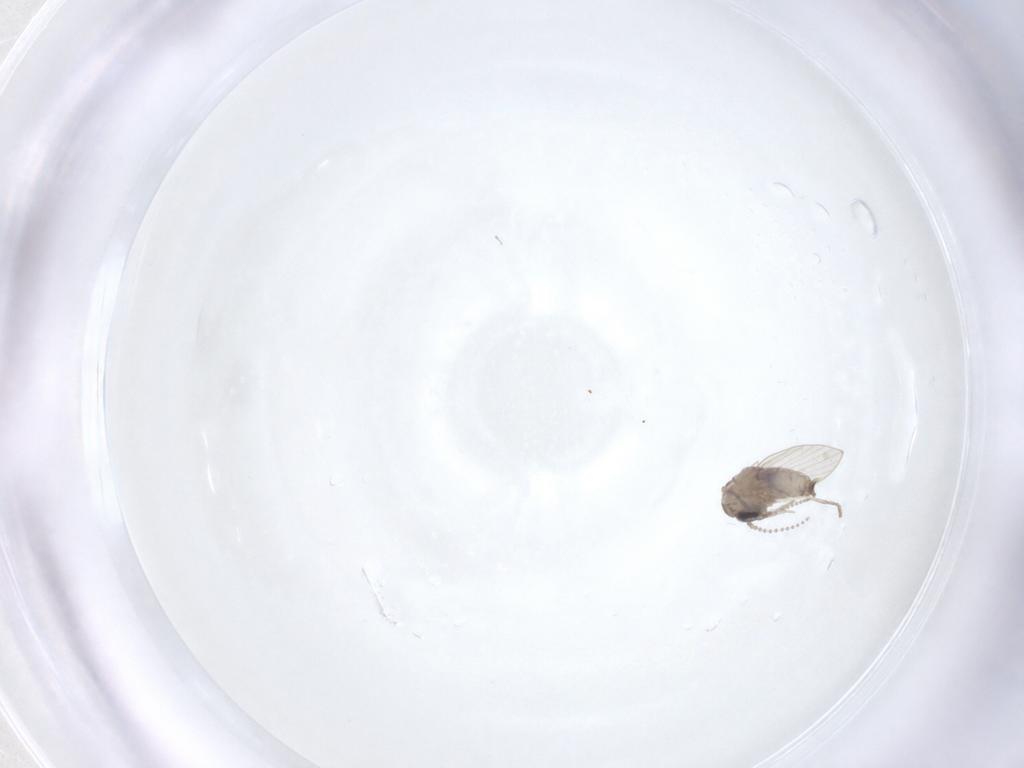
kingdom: Animalia
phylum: Arthropoda
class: Insecta
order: Diptera
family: Psychodidae
